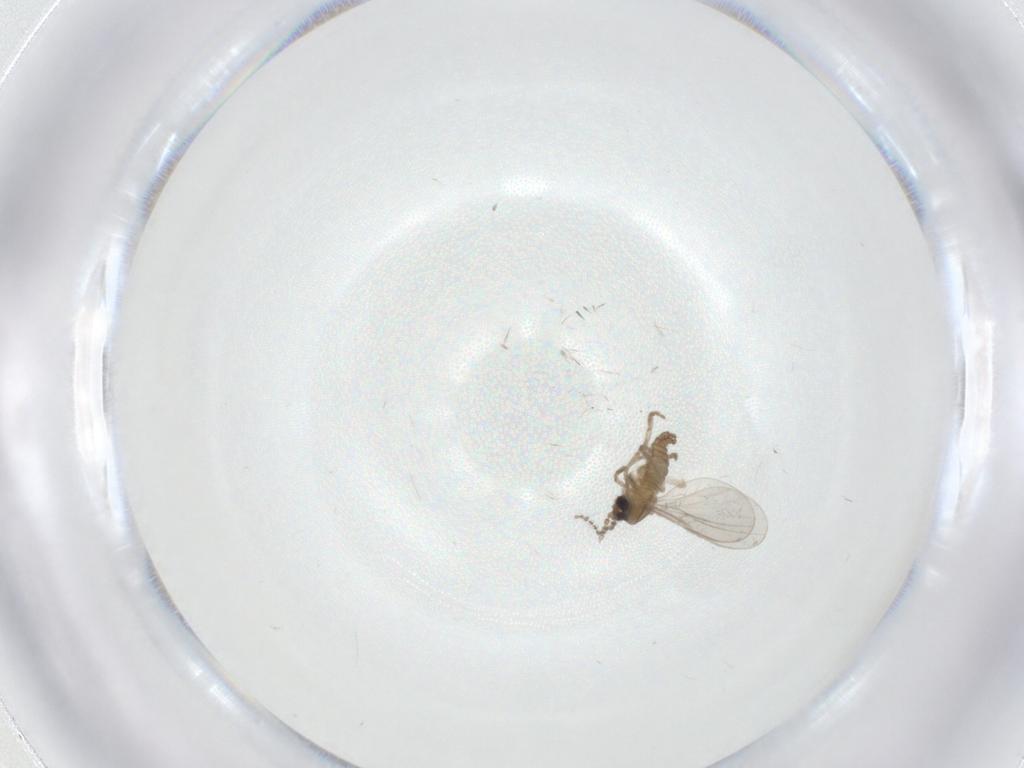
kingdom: Animalia
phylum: Arthropoda
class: Insecta
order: Diptera
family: Cecidomyiidae
